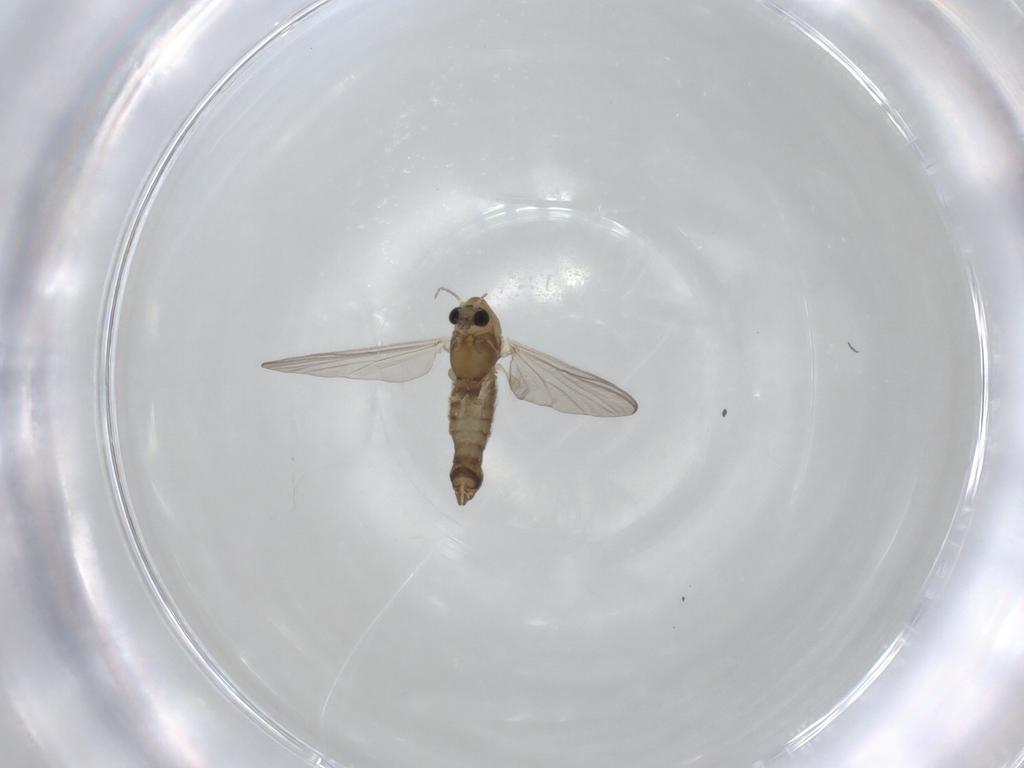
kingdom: Animalia
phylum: Arthropoda
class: Insecta
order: Diptera
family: Chironomidae
